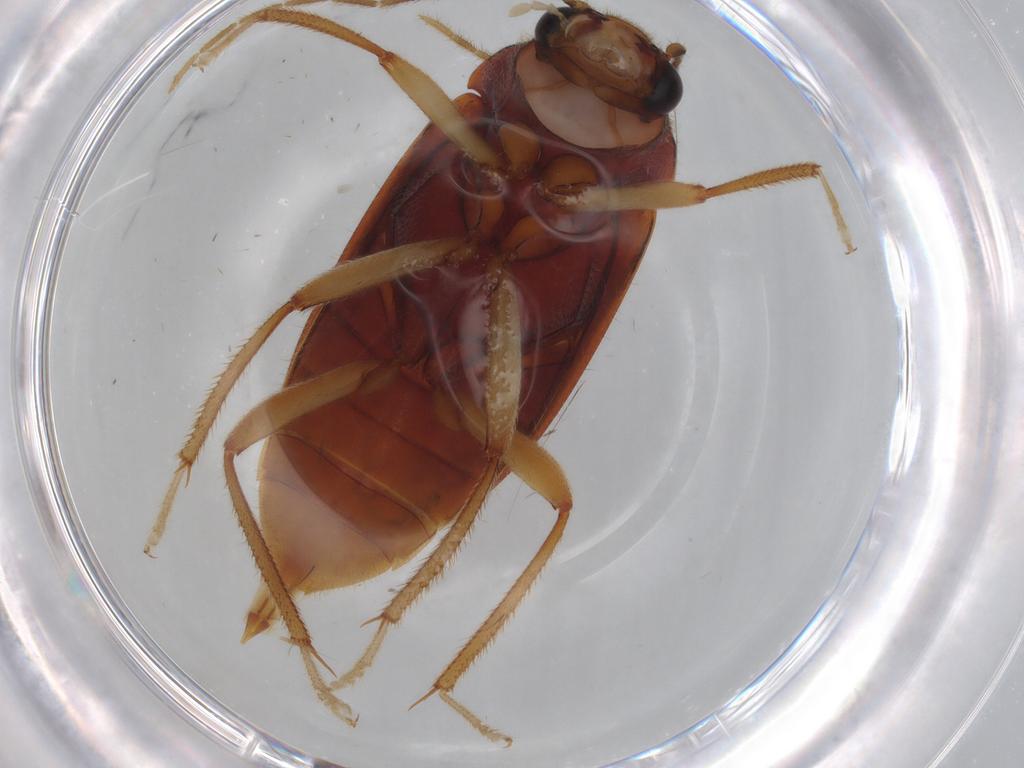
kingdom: Animalia
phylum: Arthropoda
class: Insecta
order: Coleoptera
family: Ptilodactylidae
